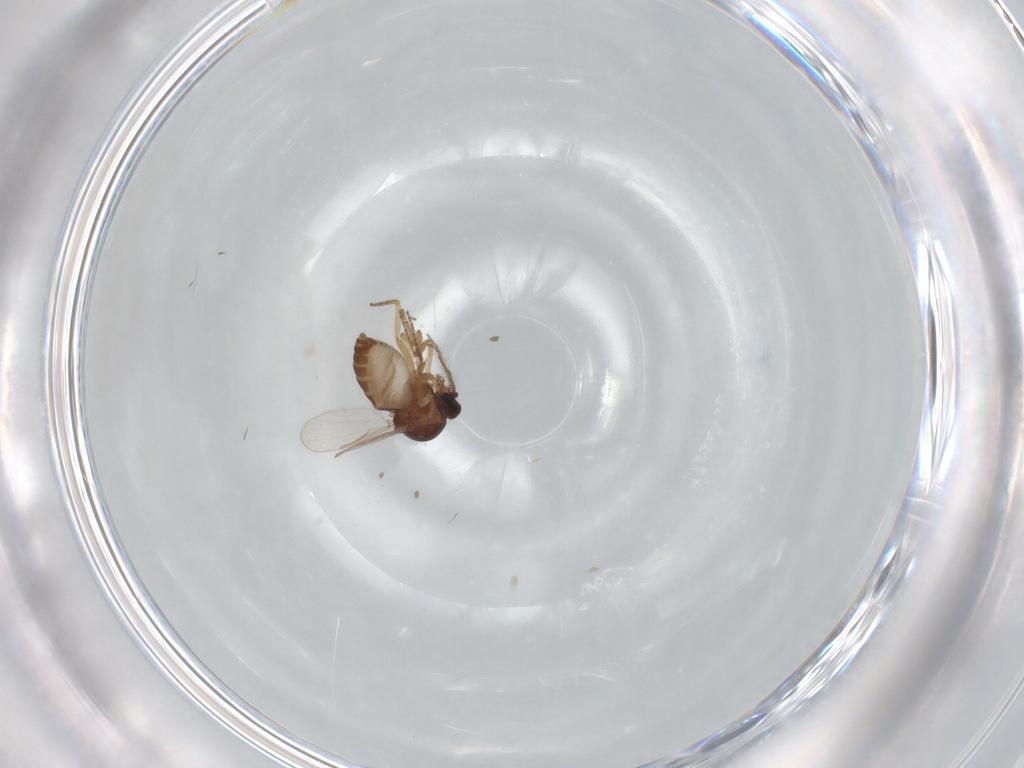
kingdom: Animalia
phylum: Arthropoda
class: Insecta
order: Diptera
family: Ceratopogonidae
